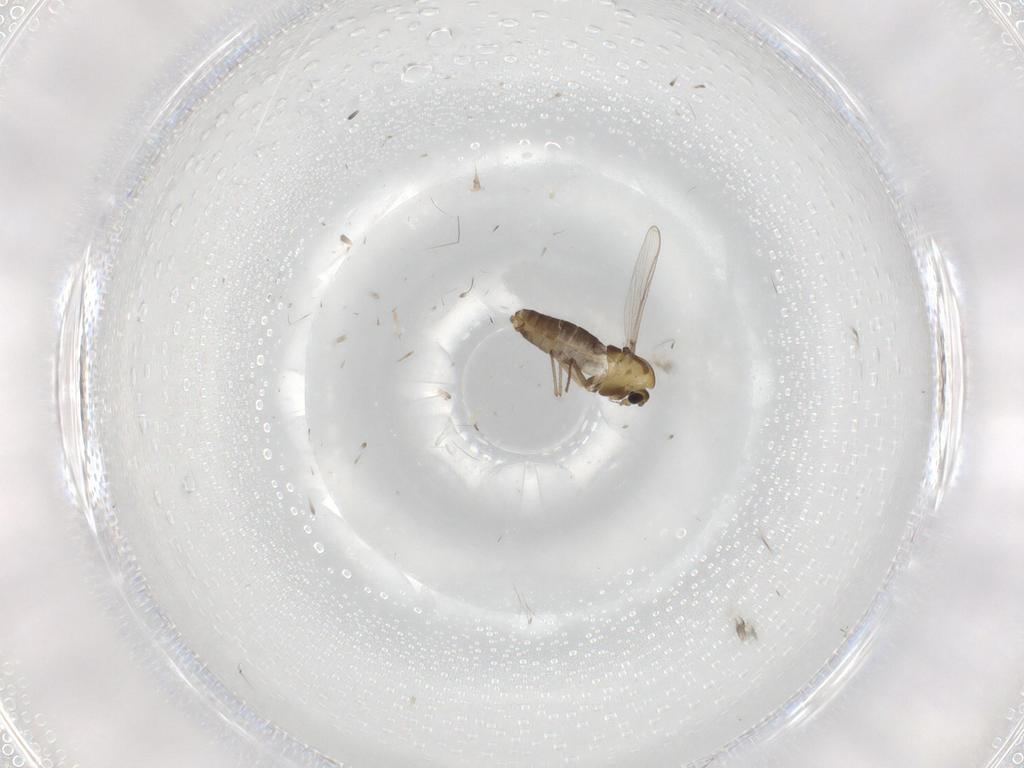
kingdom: Animalia
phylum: Arthropoda
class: Insecta
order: Diptera
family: Chironomidae
